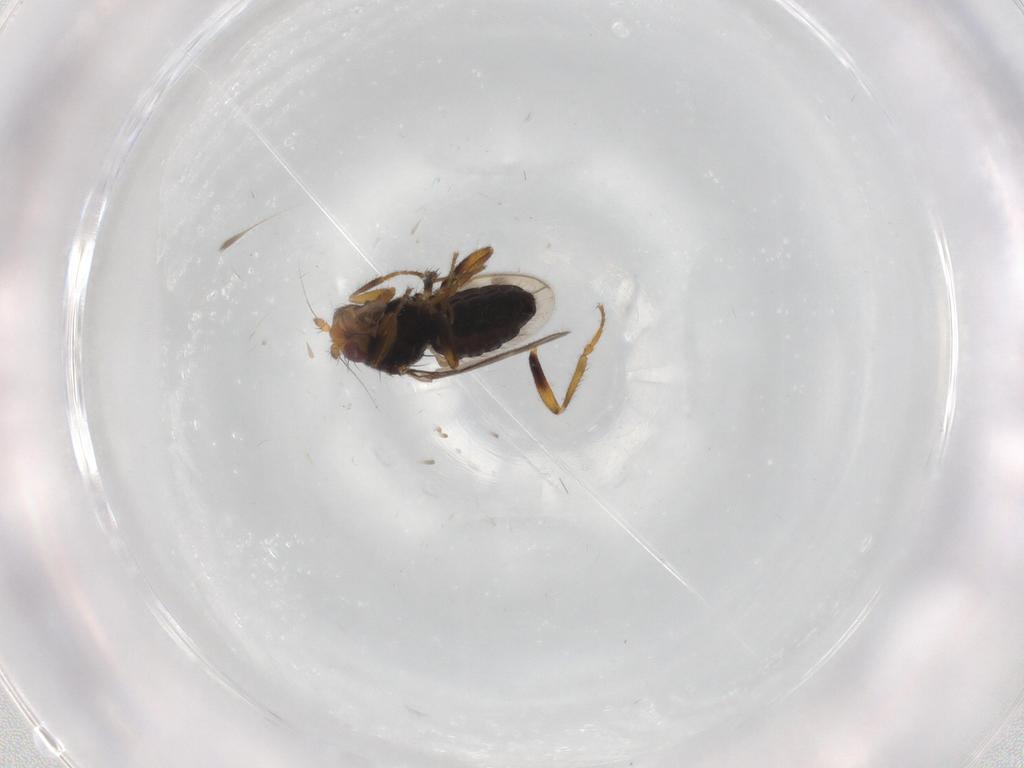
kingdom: Animalia
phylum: Arthropoda
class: Insecta
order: Diptera
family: Sphaeroceridae
